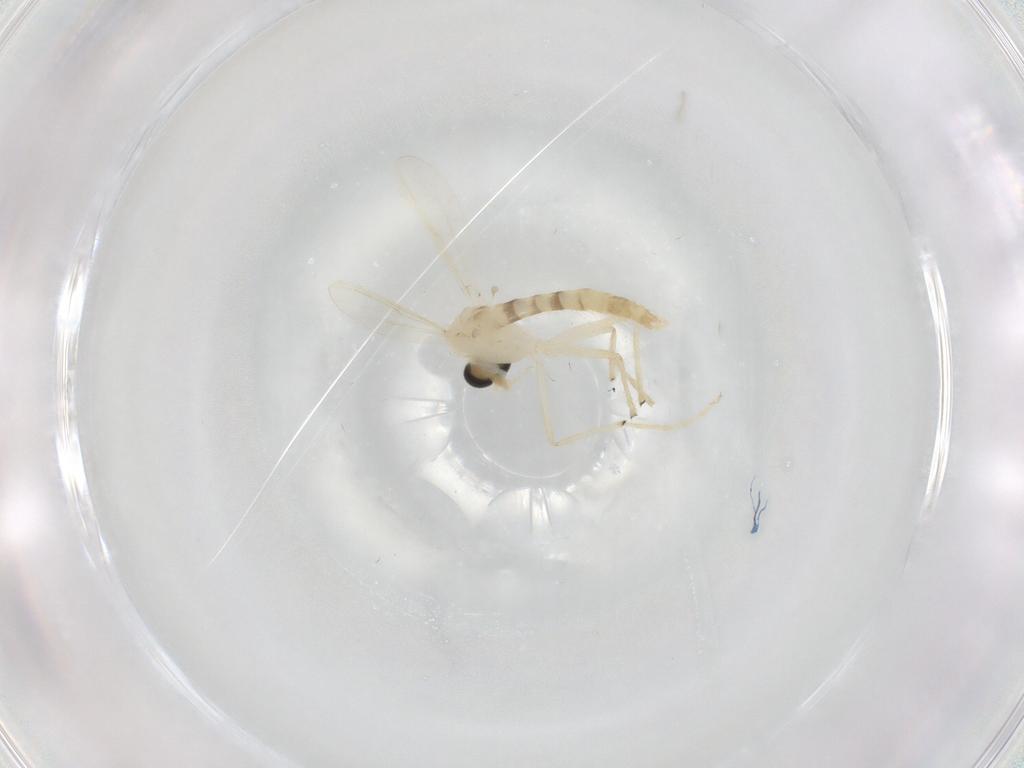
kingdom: Animalia
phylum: Arthropoda
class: Insecta
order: Diptera
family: Chironomidae
